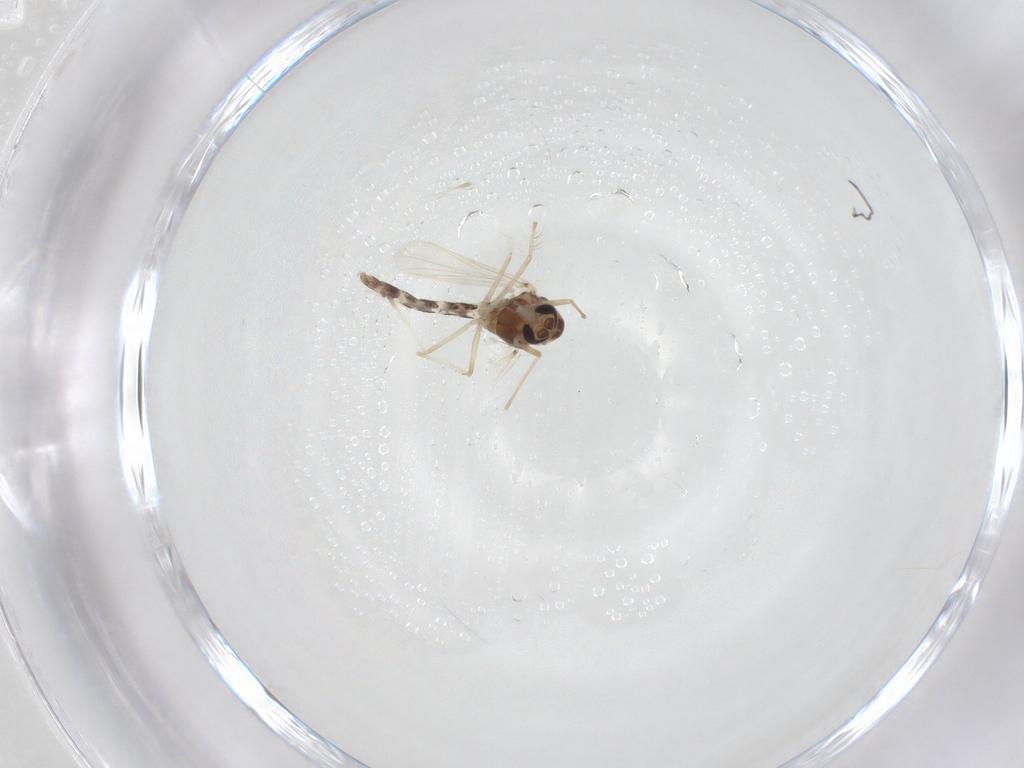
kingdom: Animalia
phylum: Arthropoda
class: Insecta
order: Diptera
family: Chironomidae
